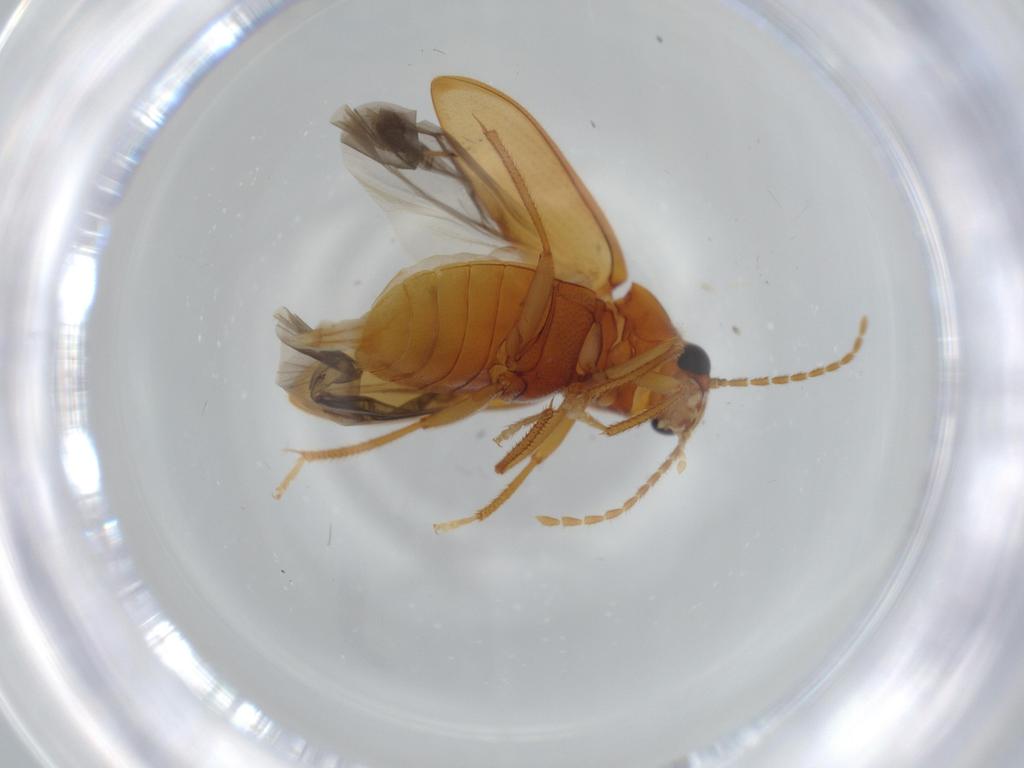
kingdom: Animalia
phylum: Arthropoda
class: Insecta
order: Coleoptera
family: Ptilodactylidae
